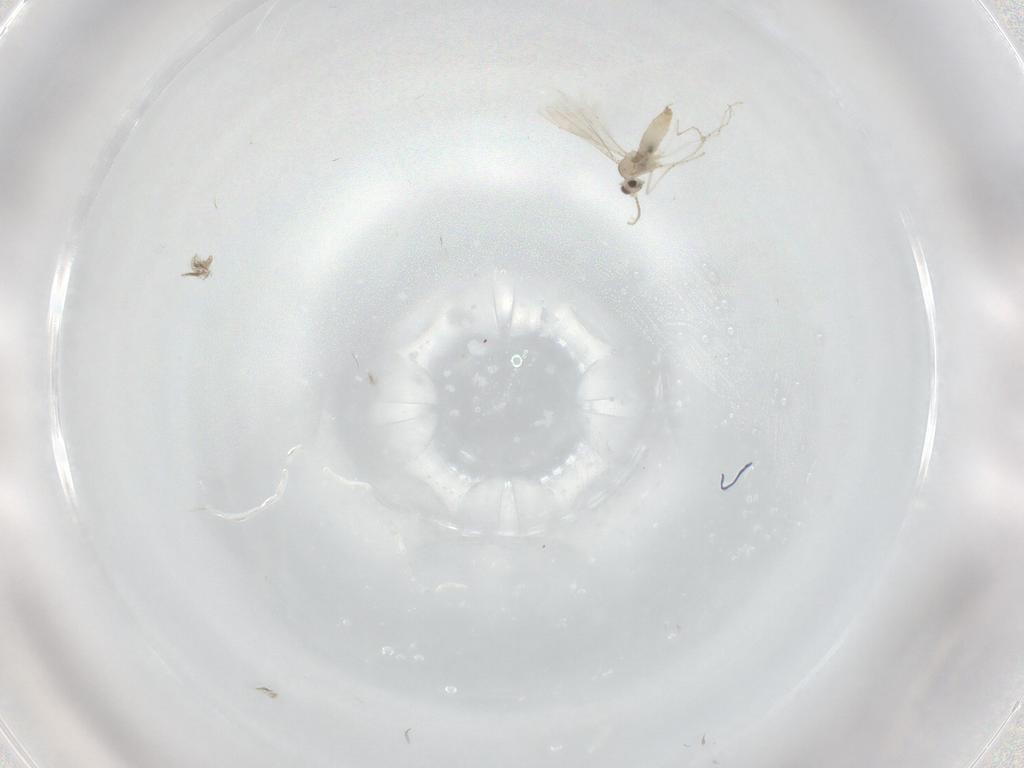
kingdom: Animalia
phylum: Arthropoda
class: Insecta
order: Diptera
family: Cecidomyiidae
